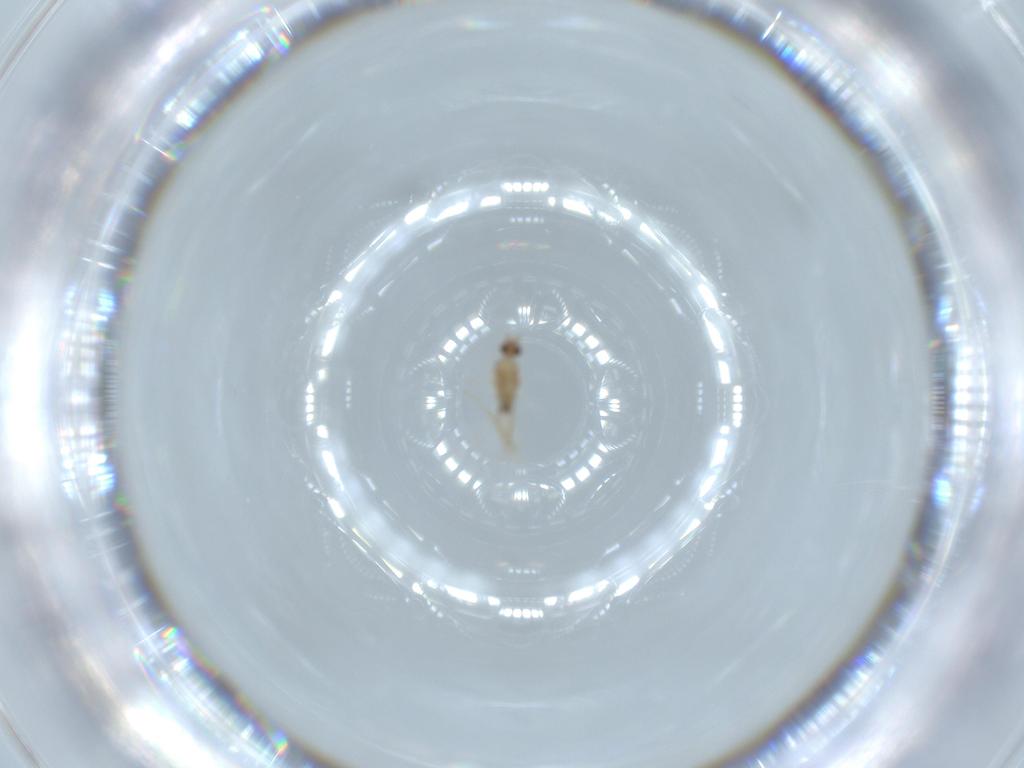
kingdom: Animalia
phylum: Arthropoda
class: Insecta
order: Diptera
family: Cecidomyiidae
